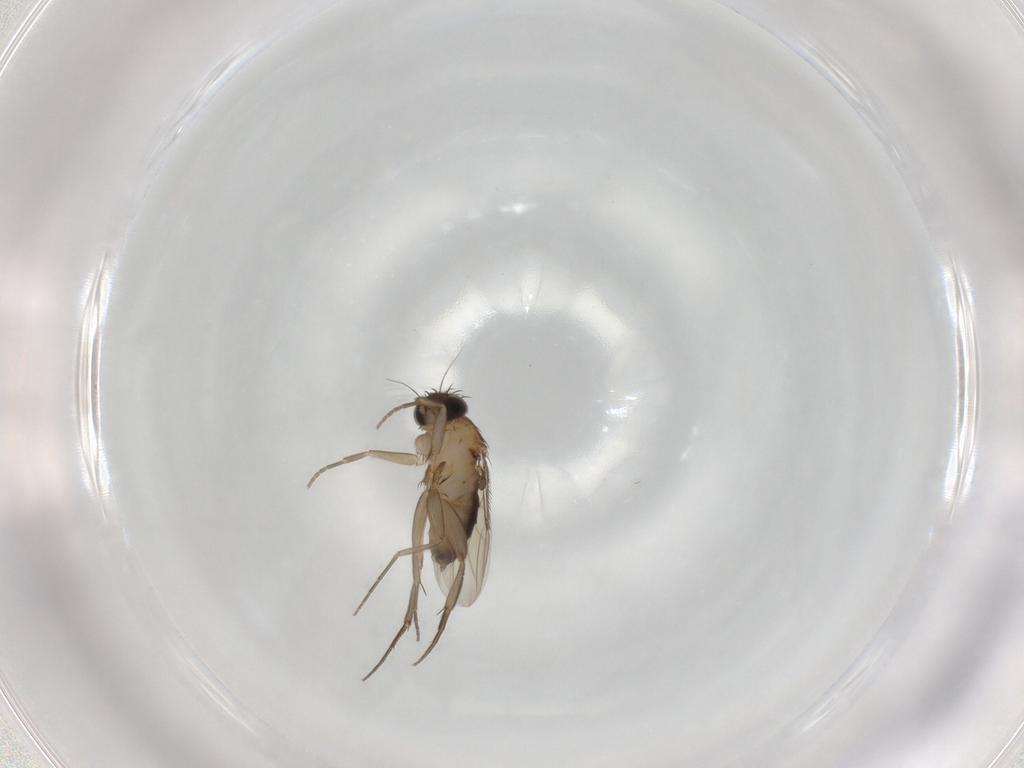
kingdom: Animalia
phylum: Arthropoda
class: Insecta
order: Diptera
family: Phoridae
